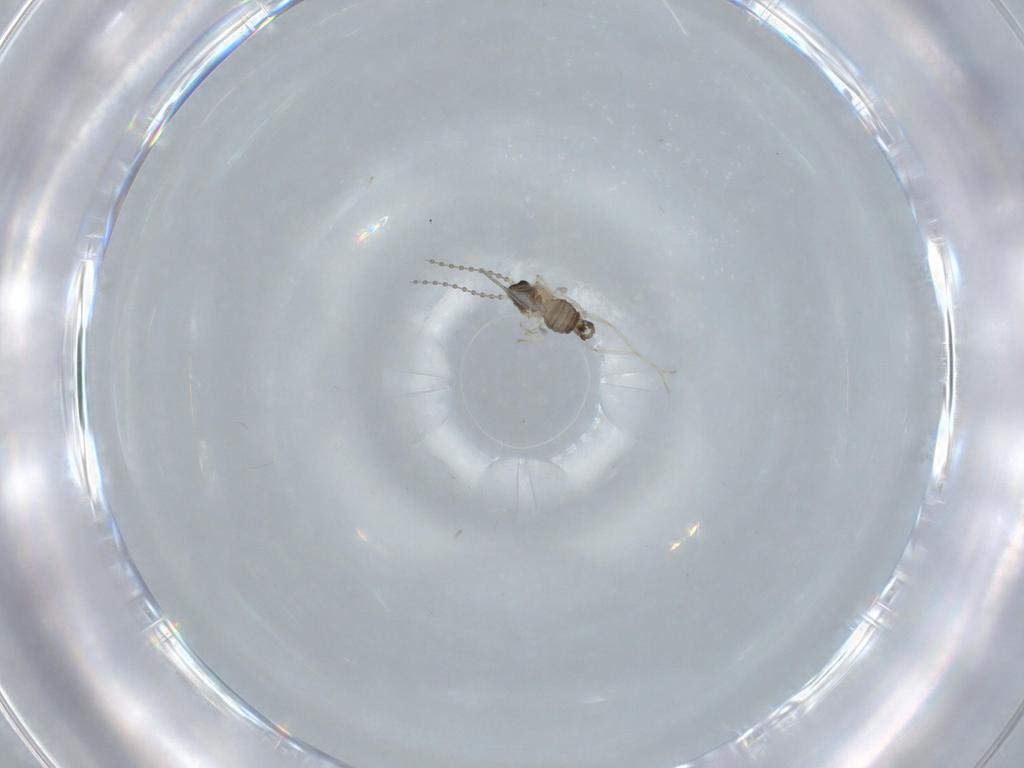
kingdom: Animalia
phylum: Arthropoda
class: Insecta
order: Diptera
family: Cecidomyiidae
